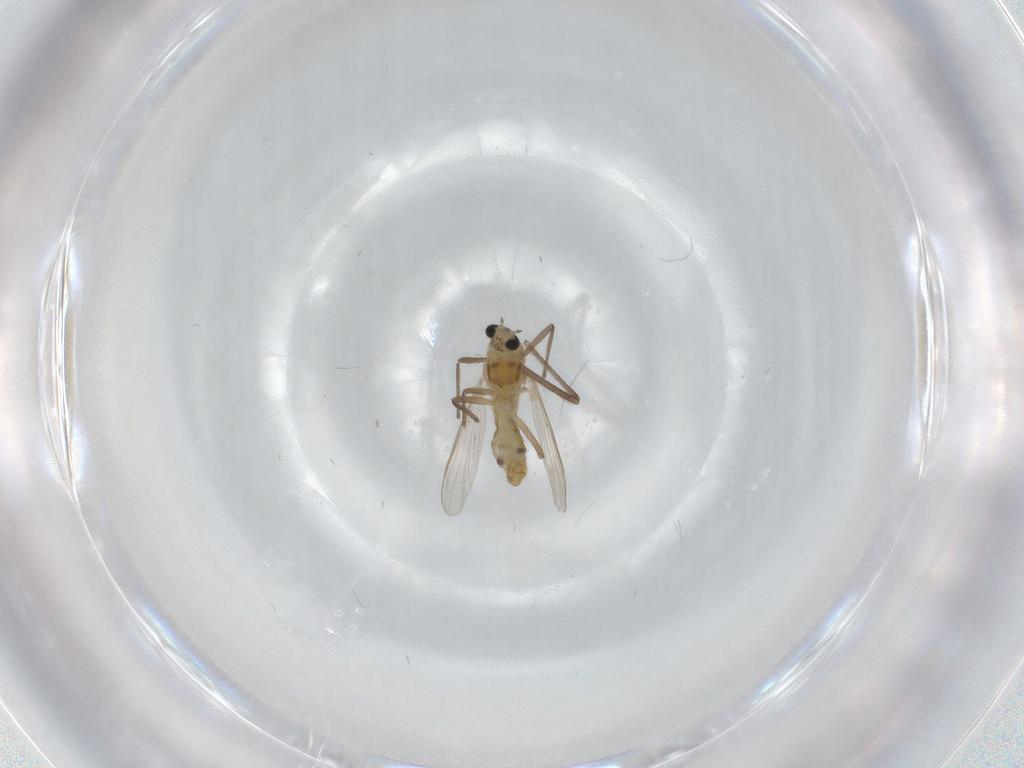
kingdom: Animalia
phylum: Arthropoda
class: Insecta
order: Diptera
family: Chironomidae
